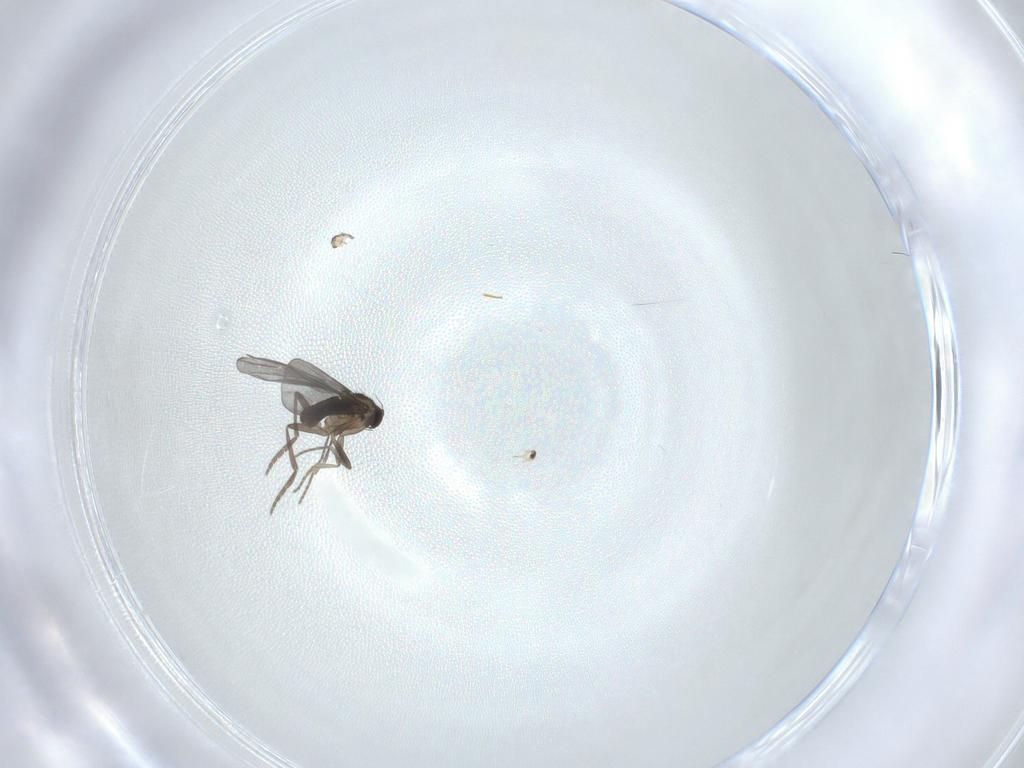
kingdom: Animalia
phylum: Arthropoda
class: Insecta
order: Diptera
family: Phoridae
